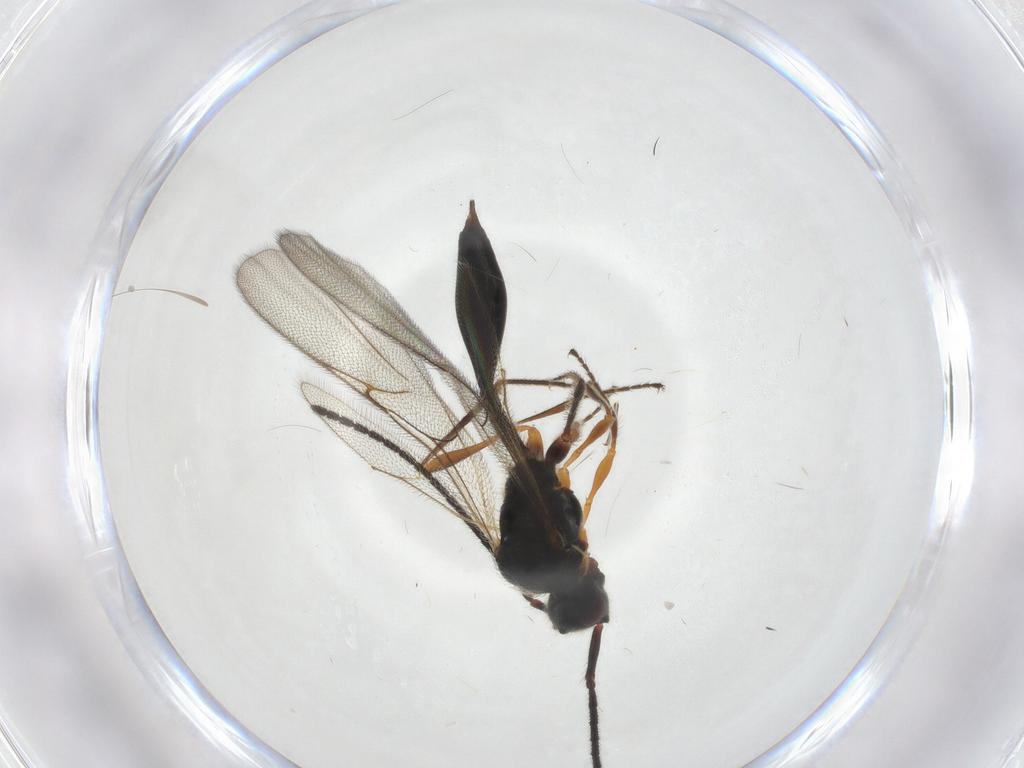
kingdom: Animalia
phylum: Arthropoda
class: Insecta
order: Hymenoptera
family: Diapriidae
